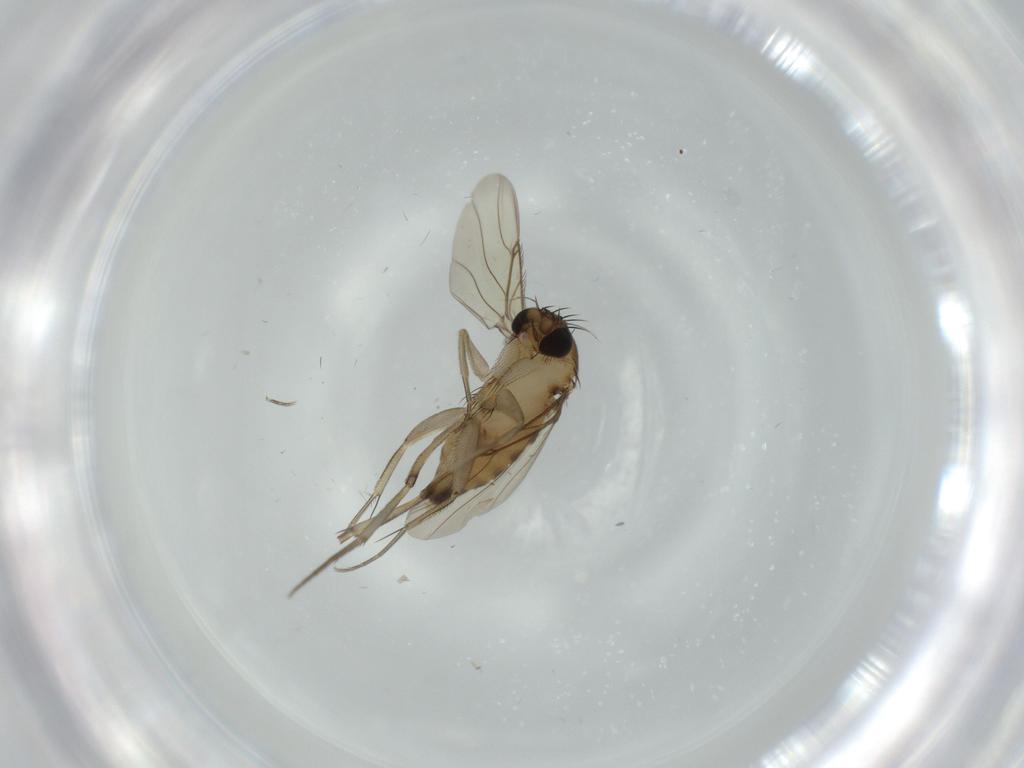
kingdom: Animalia
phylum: Arthropoda
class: Insecta
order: Diptera
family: Phoridae
